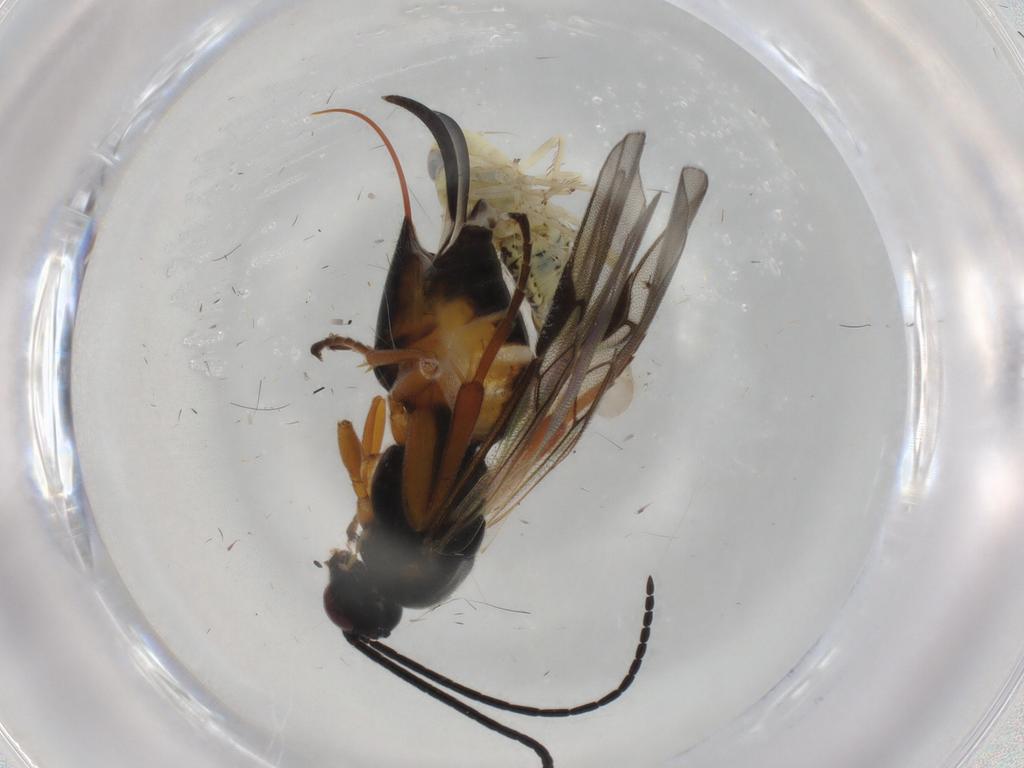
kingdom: Animalia
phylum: Arthropoda
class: Insecta
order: Lepidoptera
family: Tortricidae
